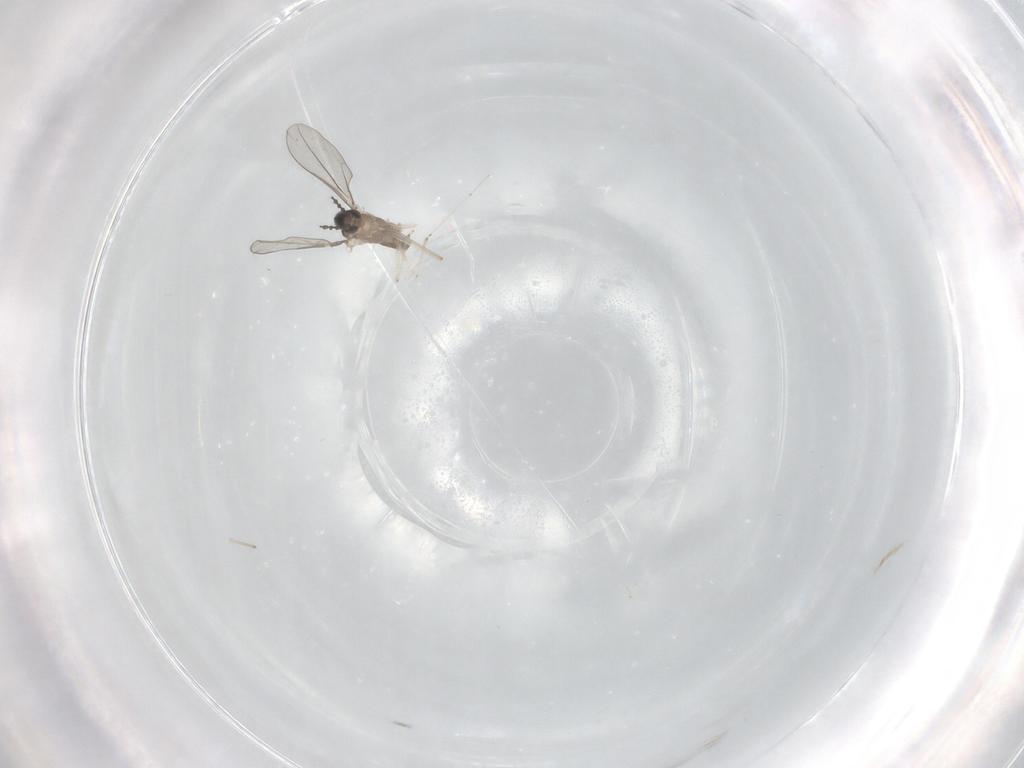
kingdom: Animalia
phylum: Arthropoda
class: Insecta
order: Diptera
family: Cecidomyiidae
